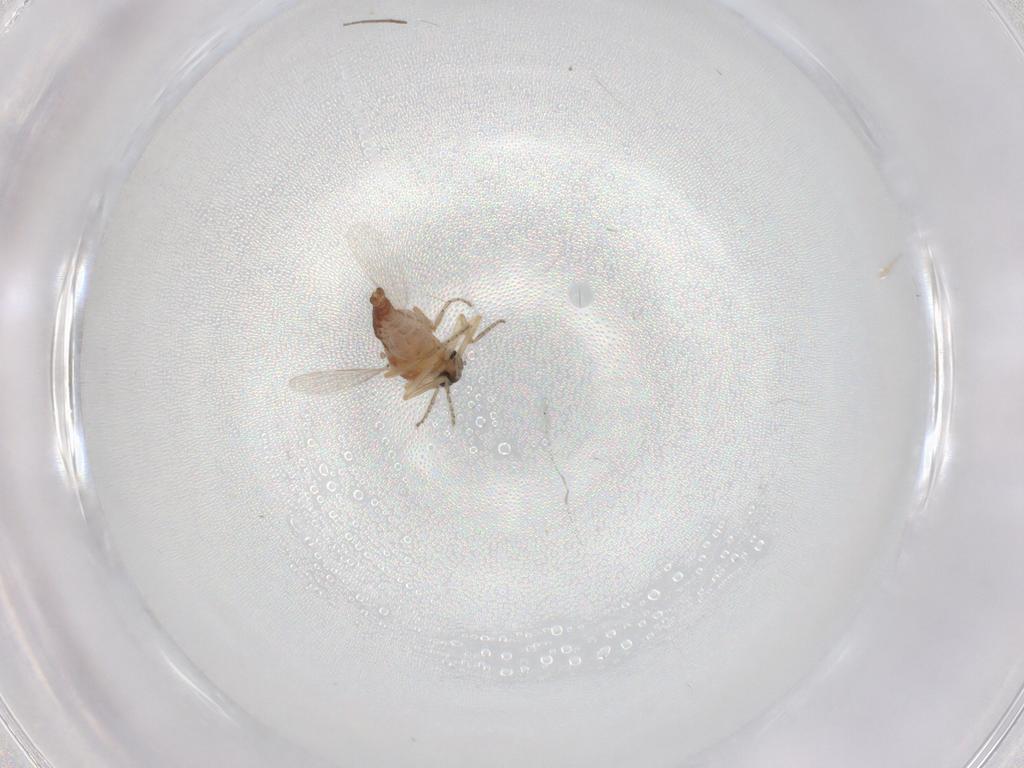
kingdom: Animalia
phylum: Arthropoda
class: Insecta
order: Diptera
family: Ceratopogonidae
